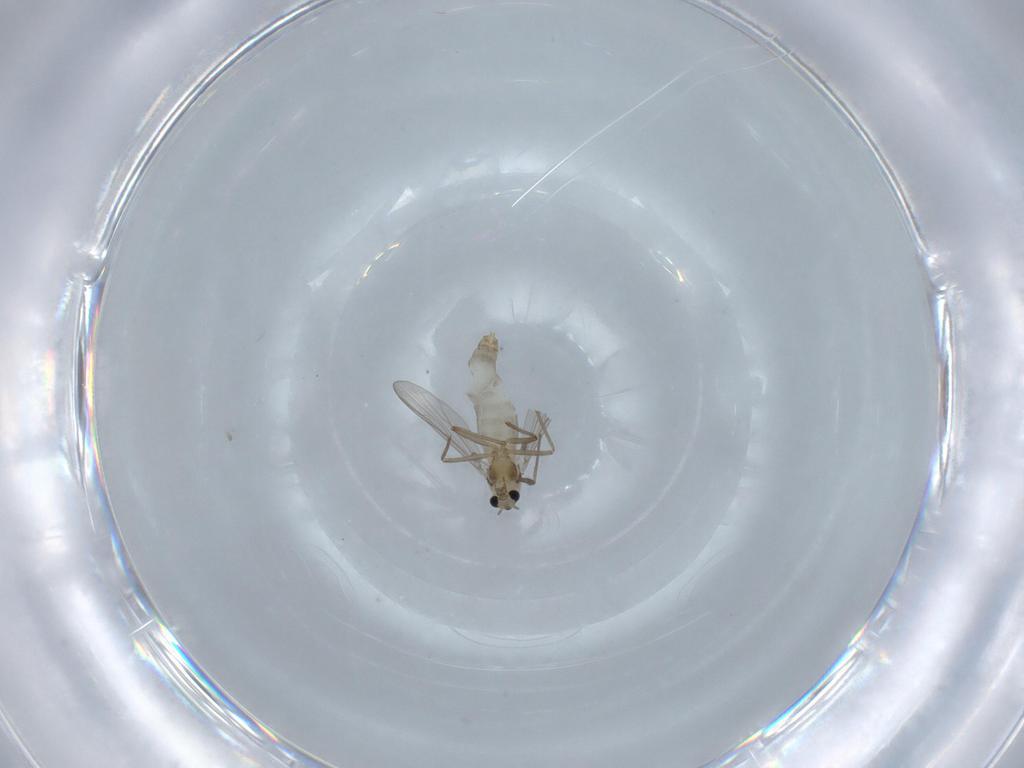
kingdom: Animalia
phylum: Arthropoda
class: Insecta
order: Diptera
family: Chironomidae
